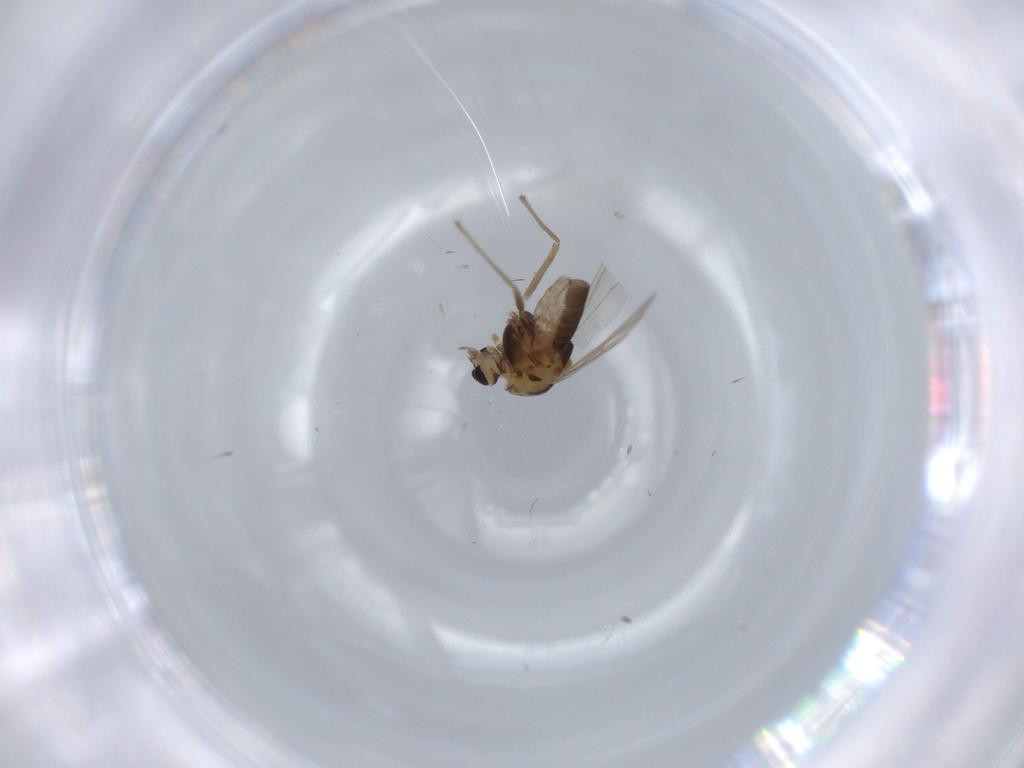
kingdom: Animalia
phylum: Arthropoda
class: Insecta
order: Diptera
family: Chironomidae
